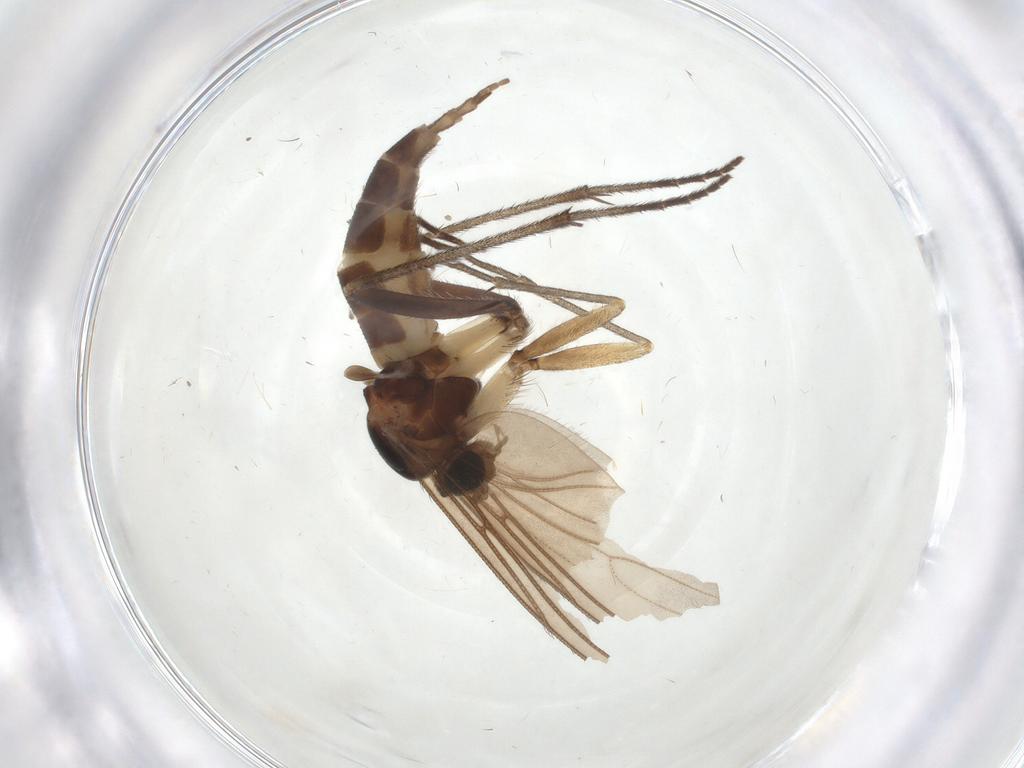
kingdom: Animalia
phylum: Arthropoda
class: Insecta
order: Diptera
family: Sciaridae
